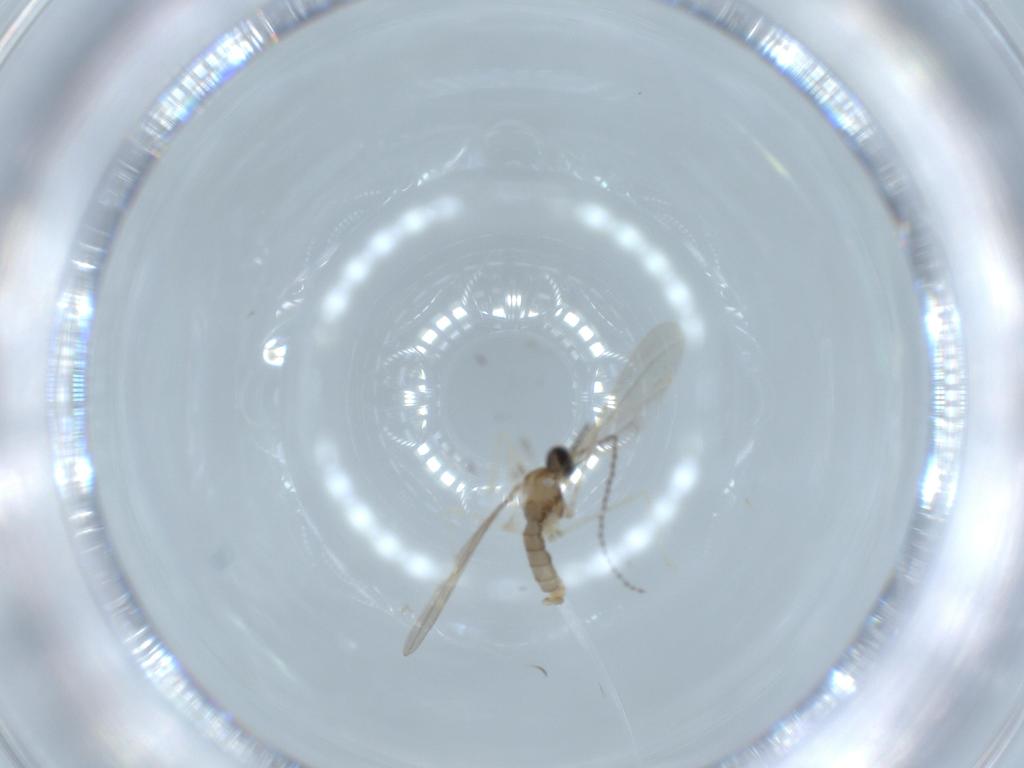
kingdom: Animalia
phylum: Arthropoda
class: Insecta
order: Diptera
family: Cecidomyiidae
